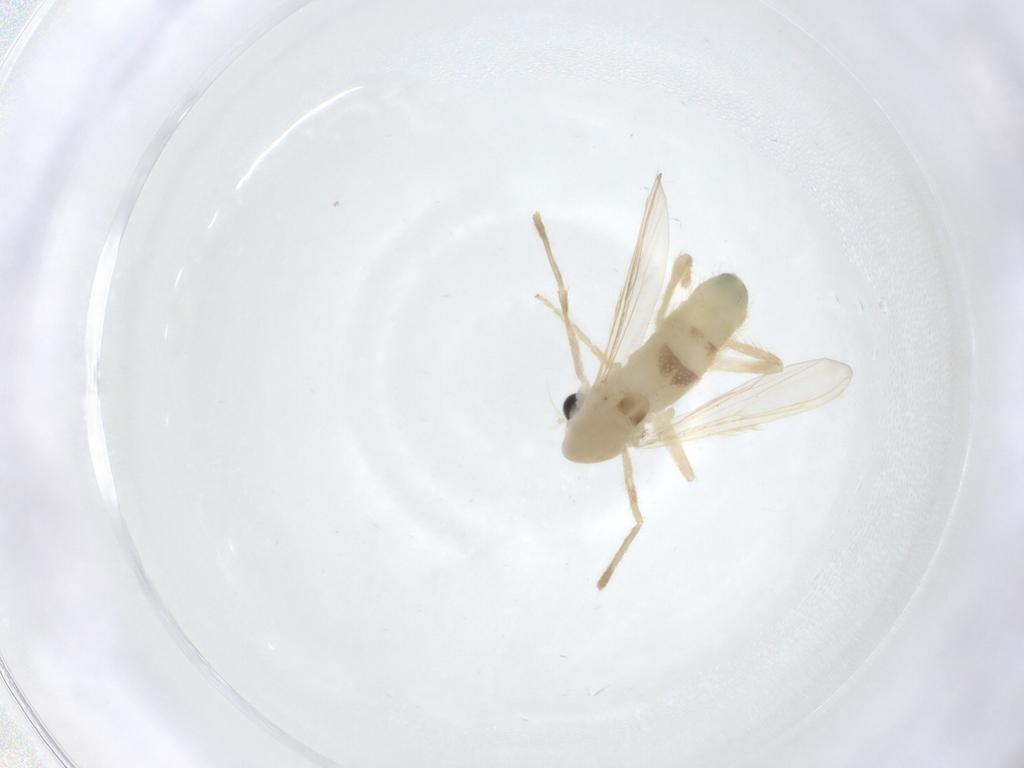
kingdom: Animalia
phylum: Arthropoda
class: Insecta
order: Diptera
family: Chironomidae
